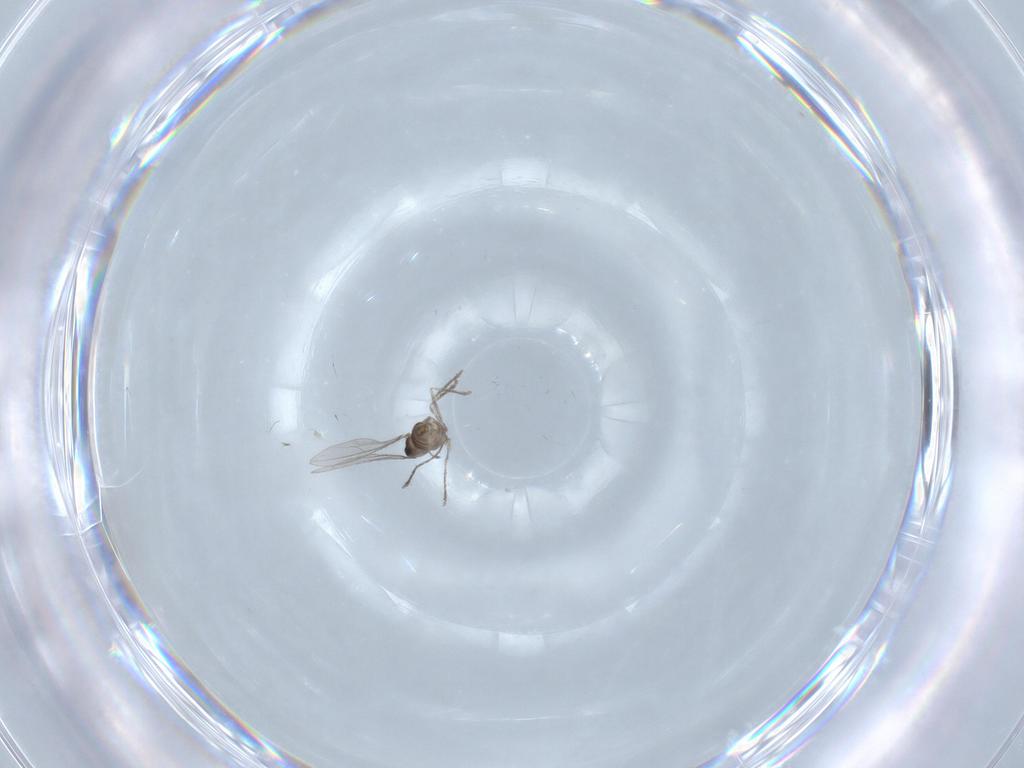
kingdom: Animalia
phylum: Arthropoda
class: Insecta
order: Diptera
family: Cecidomyiidae
